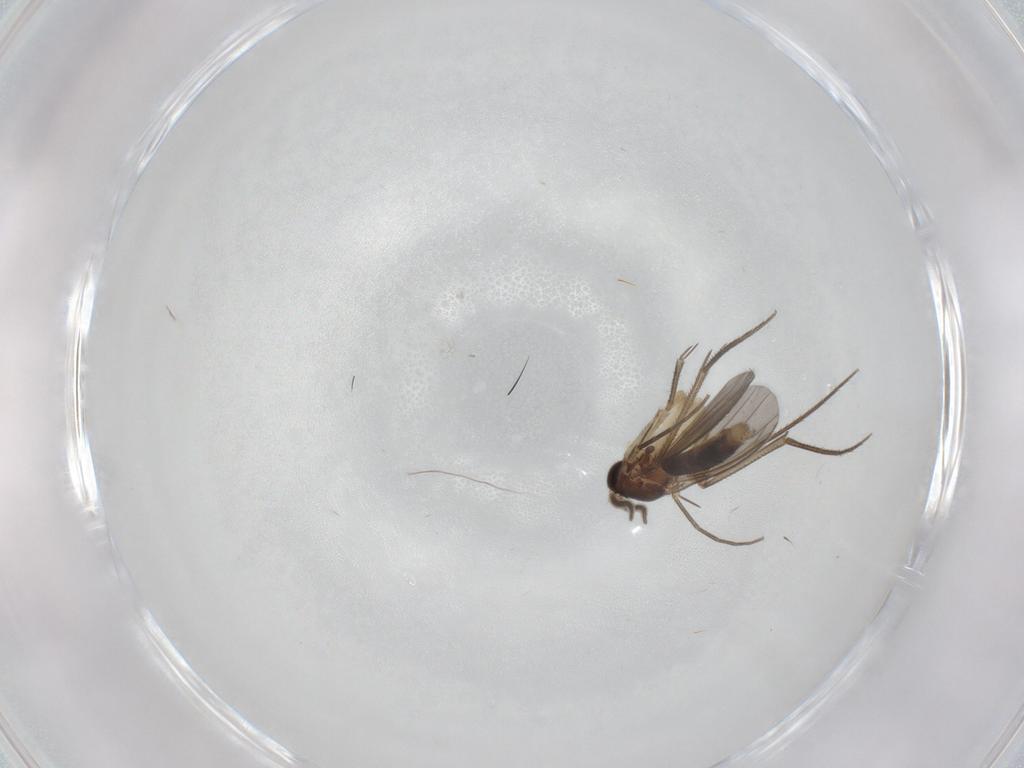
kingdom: Animalia
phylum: Arthropoda
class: Insecta
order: Diptera
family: Mycetophilidae
